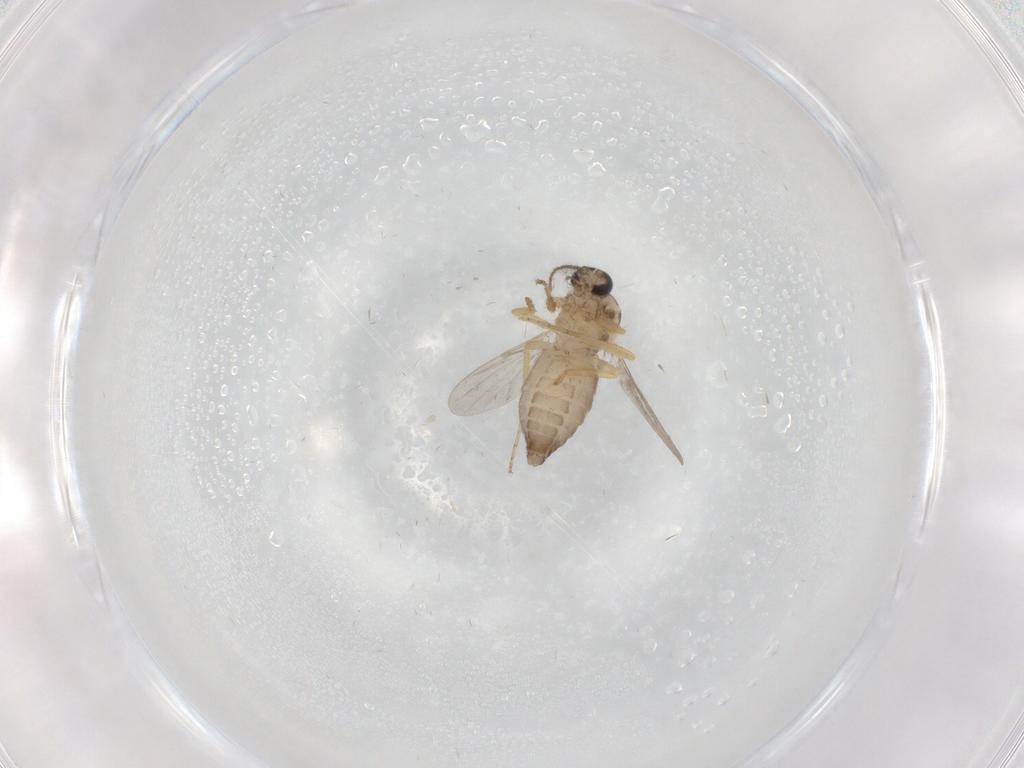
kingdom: Animalia
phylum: Arthropoda
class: Insecta
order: Diptera
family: Ceratopogonidae
